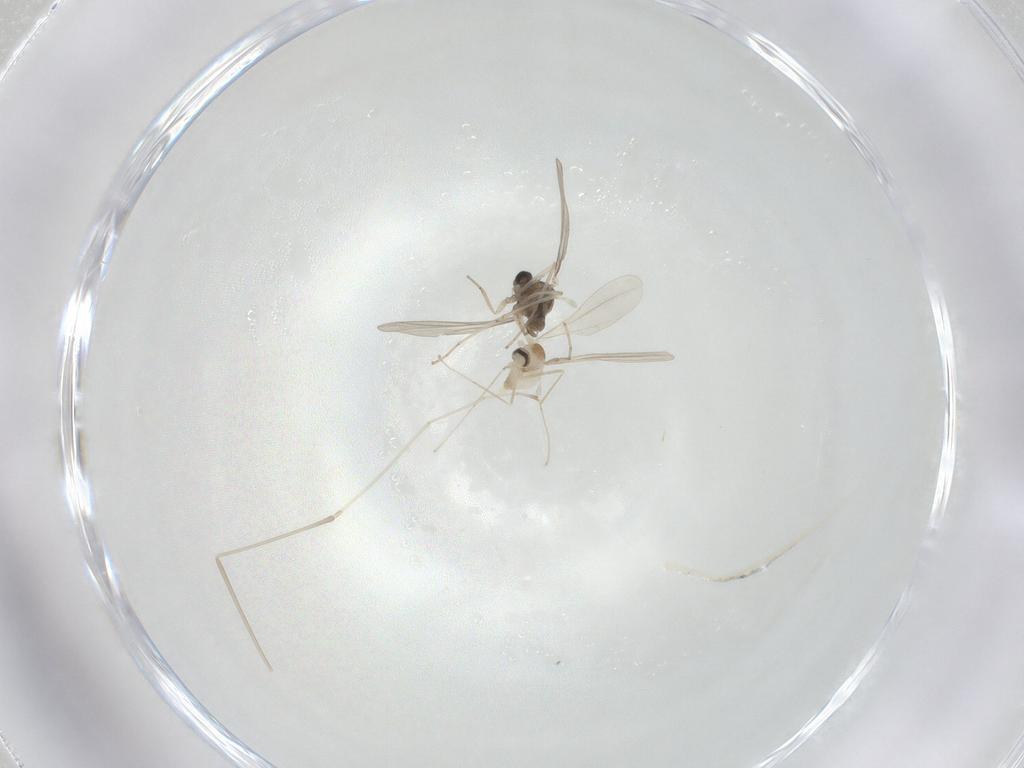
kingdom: Animalia
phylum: Arthropoda
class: Insecta
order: Diptera
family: Cecidomyiidae
